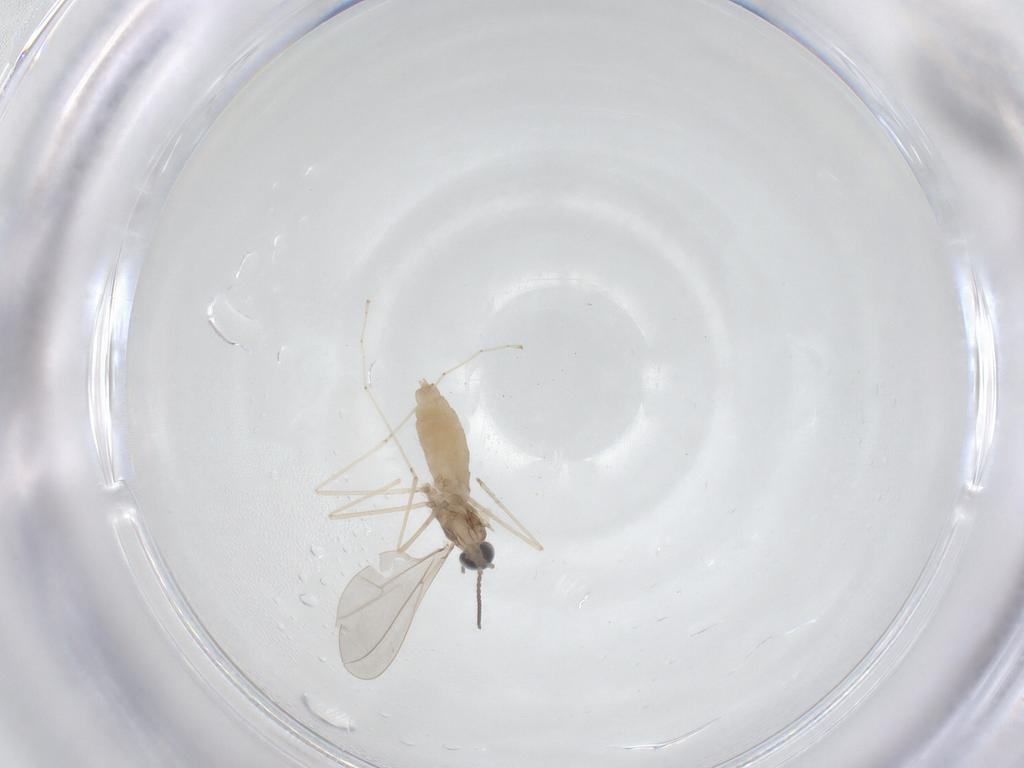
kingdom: Animalia
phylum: Arthropoda
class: Insecta
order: Diptera
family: Cecidomyiidae
